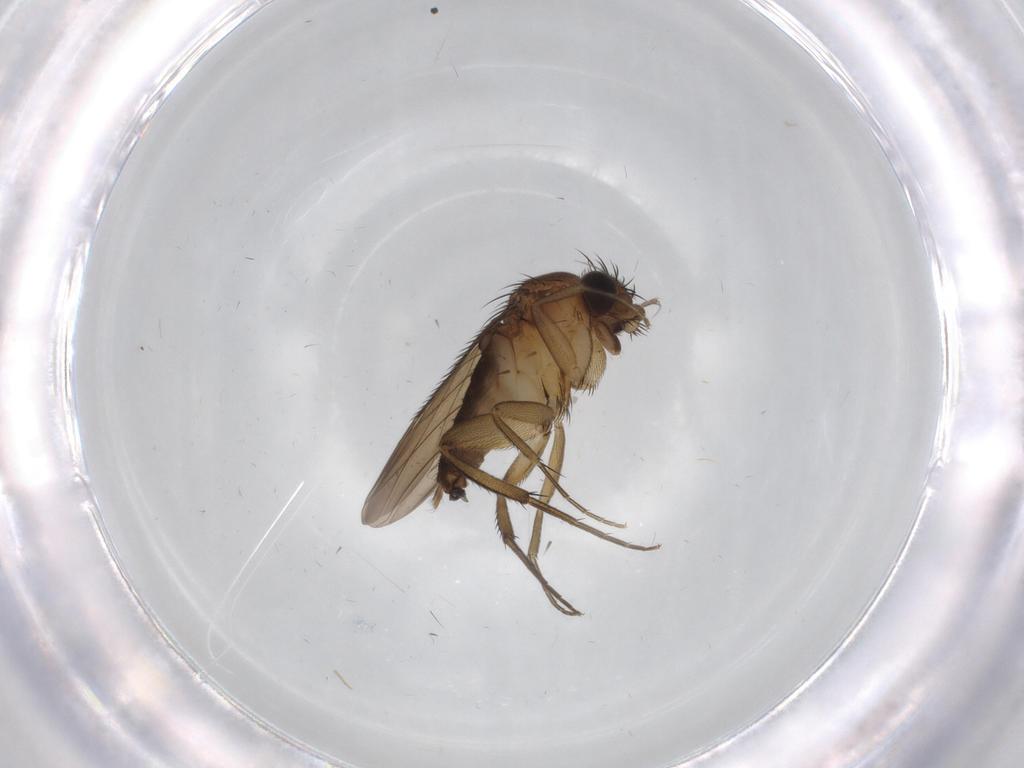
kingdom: Animalia
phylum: Arthropoda
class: Insecta
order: Diptera
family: Phoridae
